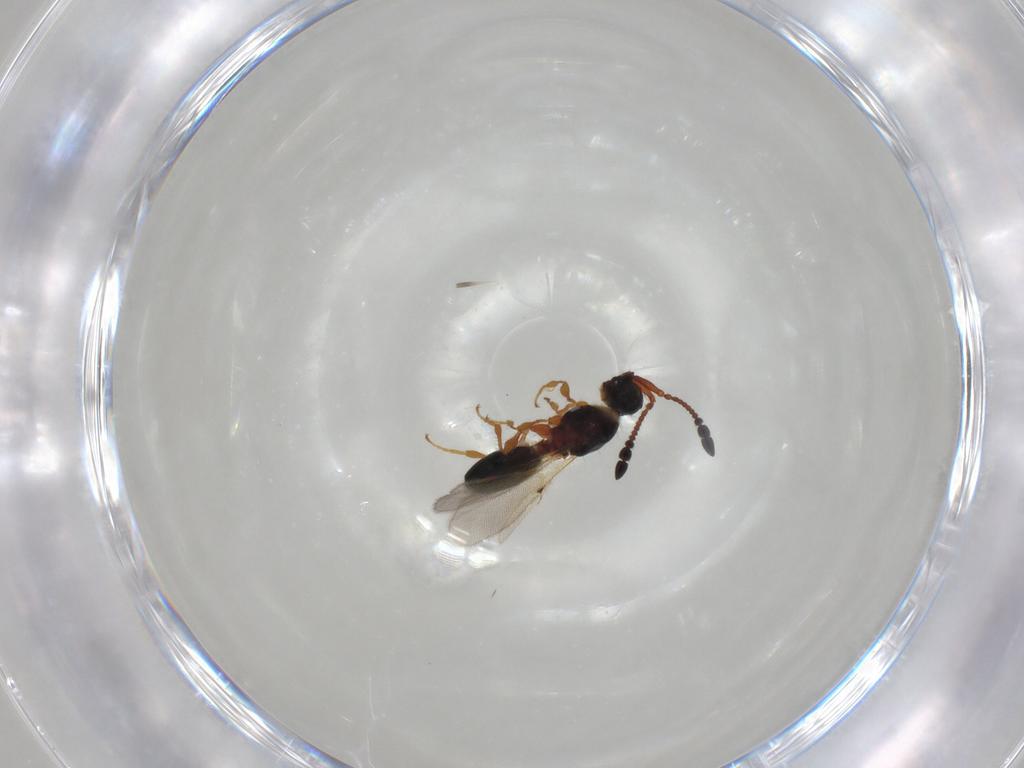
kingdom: Animalia
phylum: Arthropoda
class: Insecta
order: Hymenoptera
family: Diapriidae
